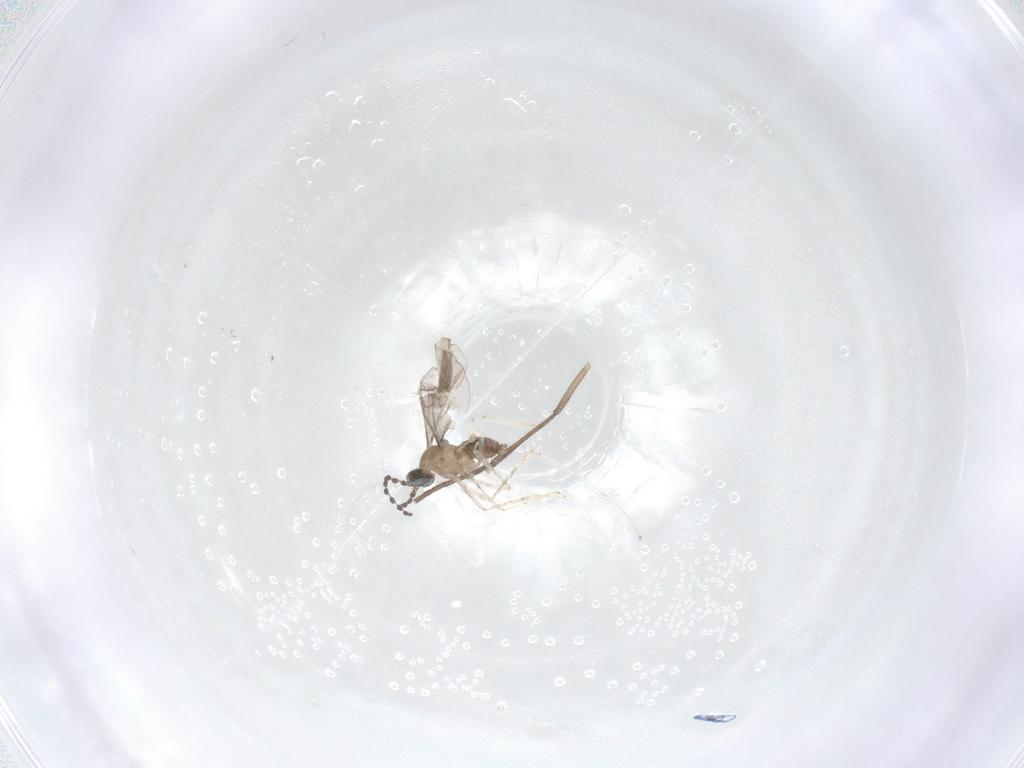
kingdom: Animalia
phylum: Arthropoda
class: Insecta
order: Diptera
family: Cecidomyiidae
